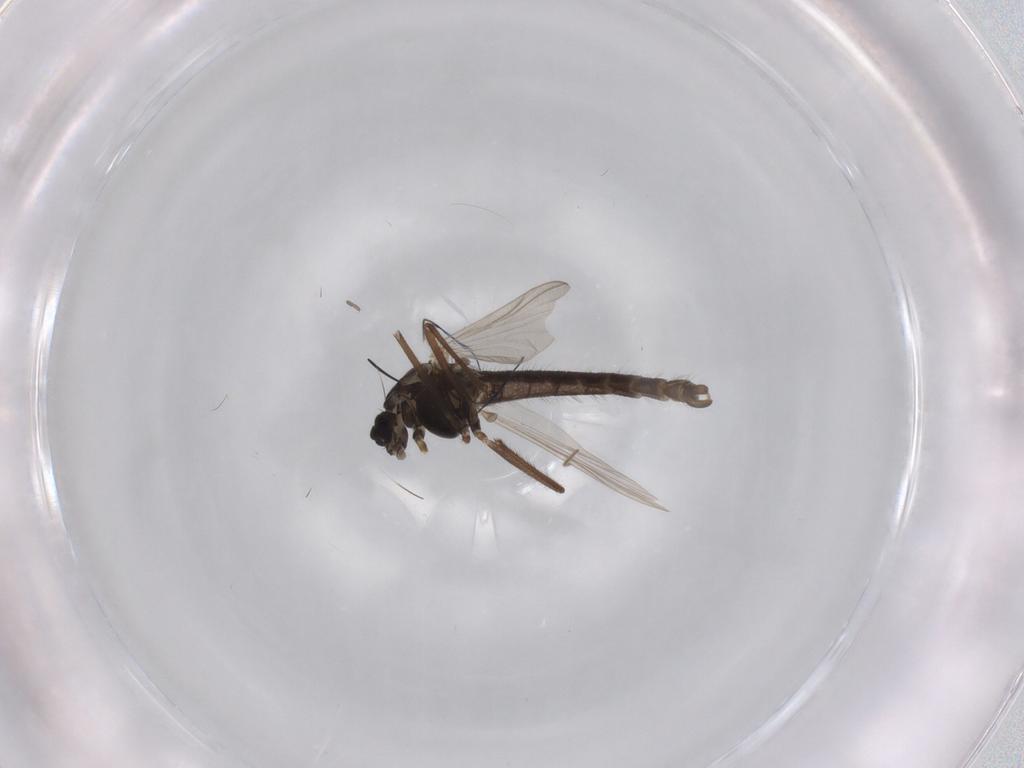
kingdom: Animalia
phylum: Arthropoda
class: Insecta
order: Diptera
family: Chironomidae
